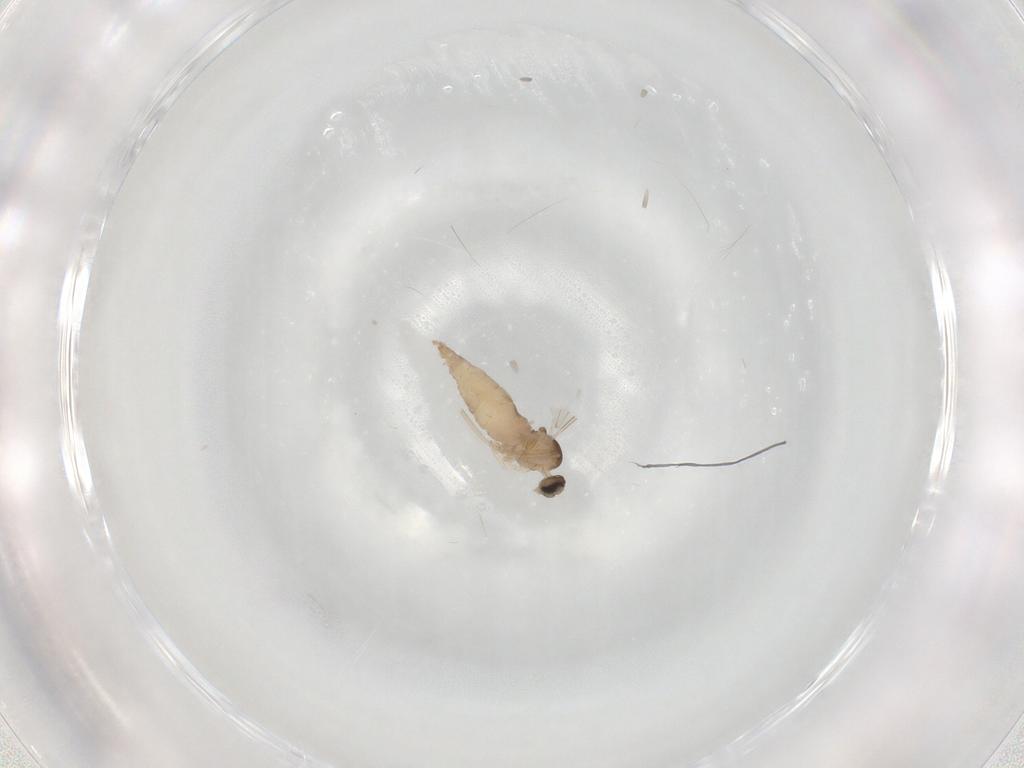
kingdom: Animalia
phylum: Arthropoda
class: Insecta
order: Diptera
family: Cecidomyiidae
